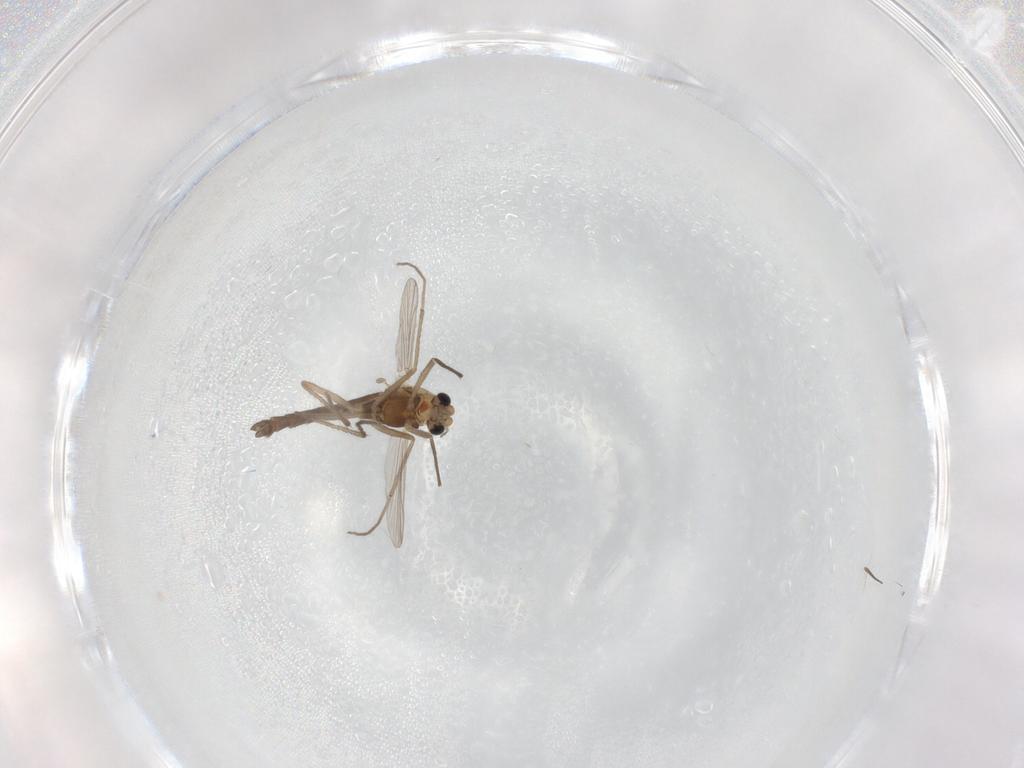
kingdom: Animalia
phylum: Arthropoda
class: Insecta
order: Diptera
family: Chironomidae
